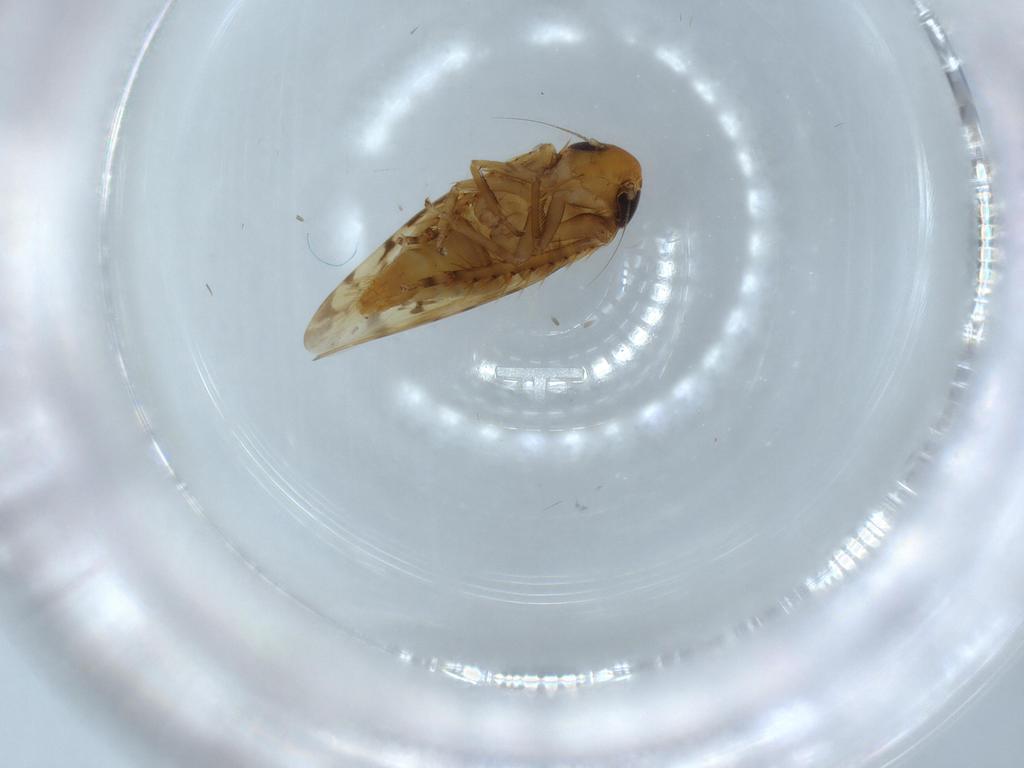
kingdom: Animalia
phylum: Arthropoda
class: Insecta
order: Hemiptera
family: Cicadellidae
